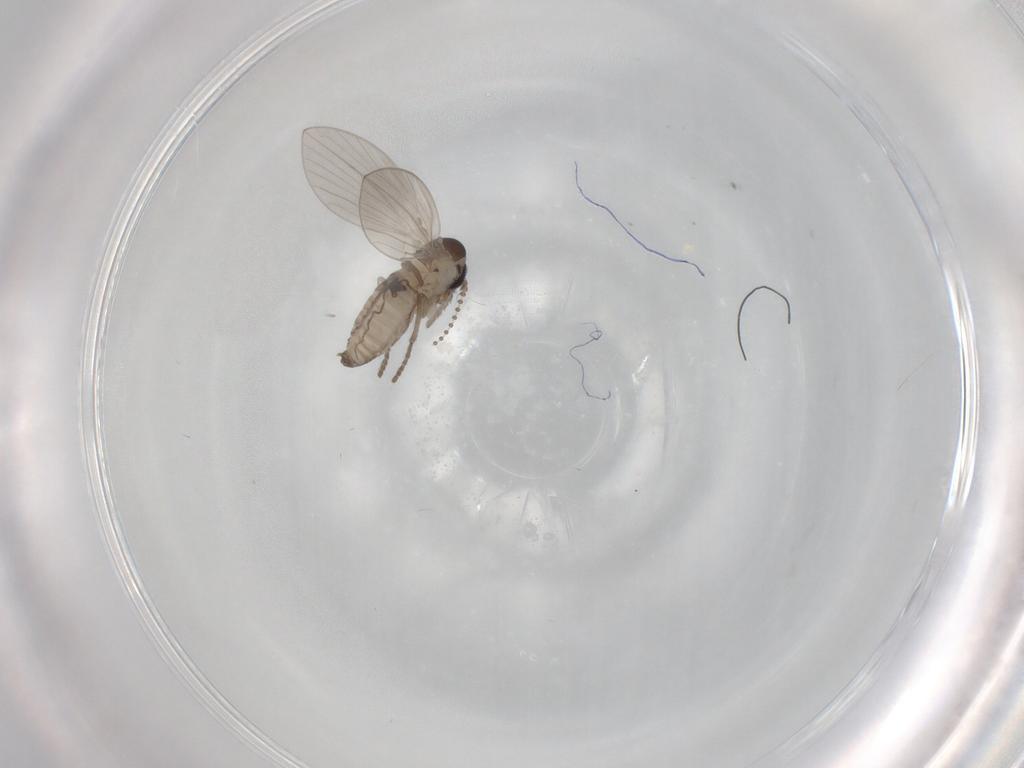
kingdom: Animalia
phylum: Arthropoda
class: Insecta
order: Diptera
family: Psychodidae
